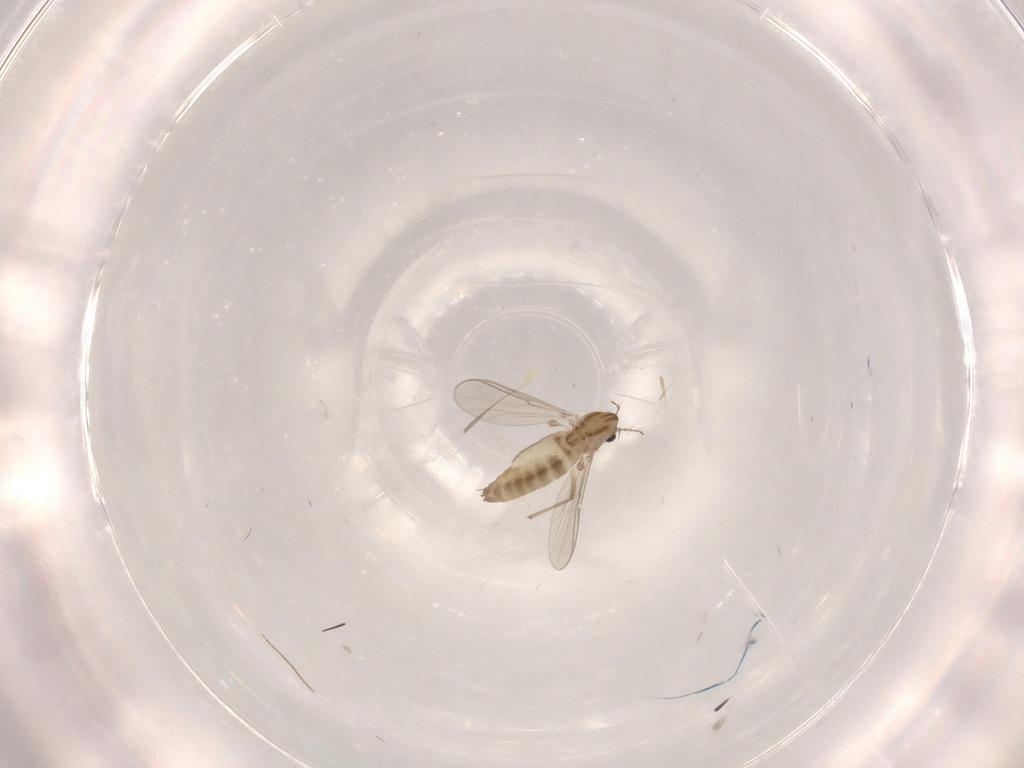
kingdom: Animalia
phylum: Arthropoda
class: Insecta
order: Diptera
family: Chironomidae
